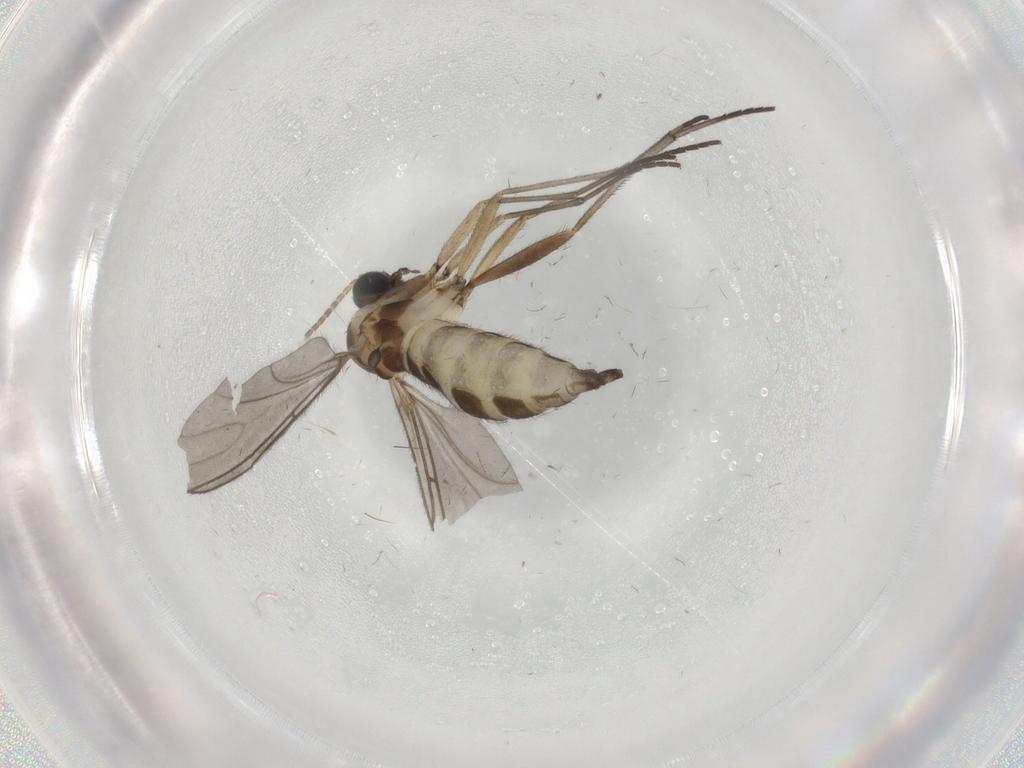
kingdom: Animalia
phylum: Arthropoda
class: Insecta
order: Diptera
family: Sciaridae
